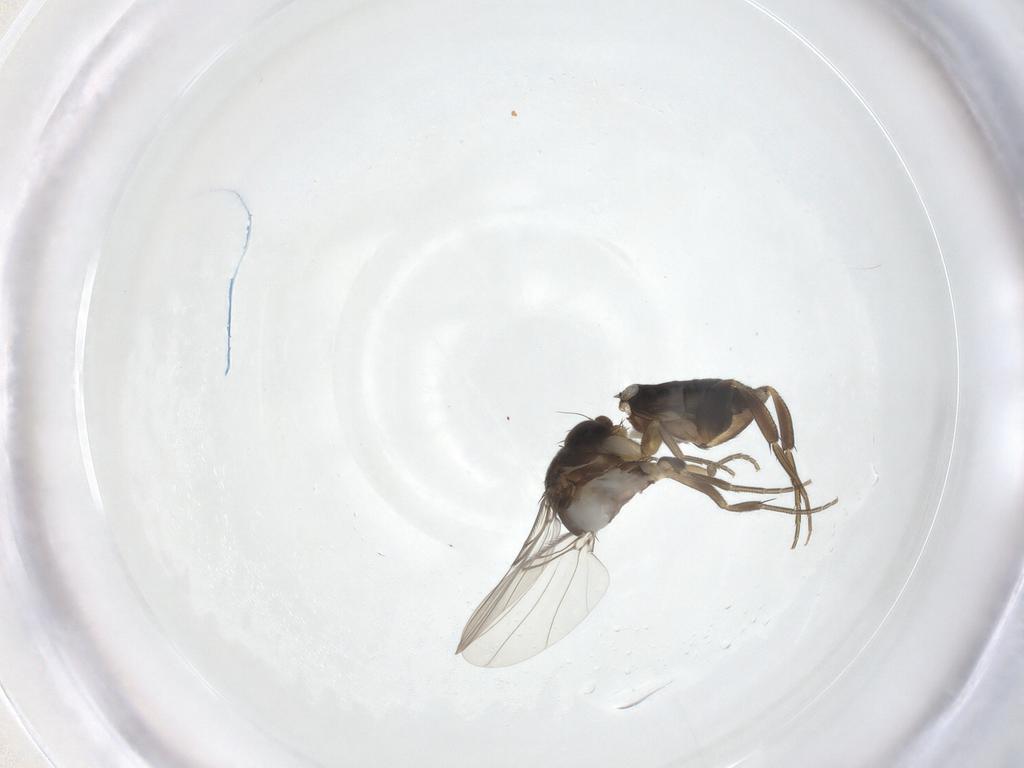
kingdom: Animalia
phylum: Arthropoda
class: Insecta
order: Diptera
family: Phoridae
